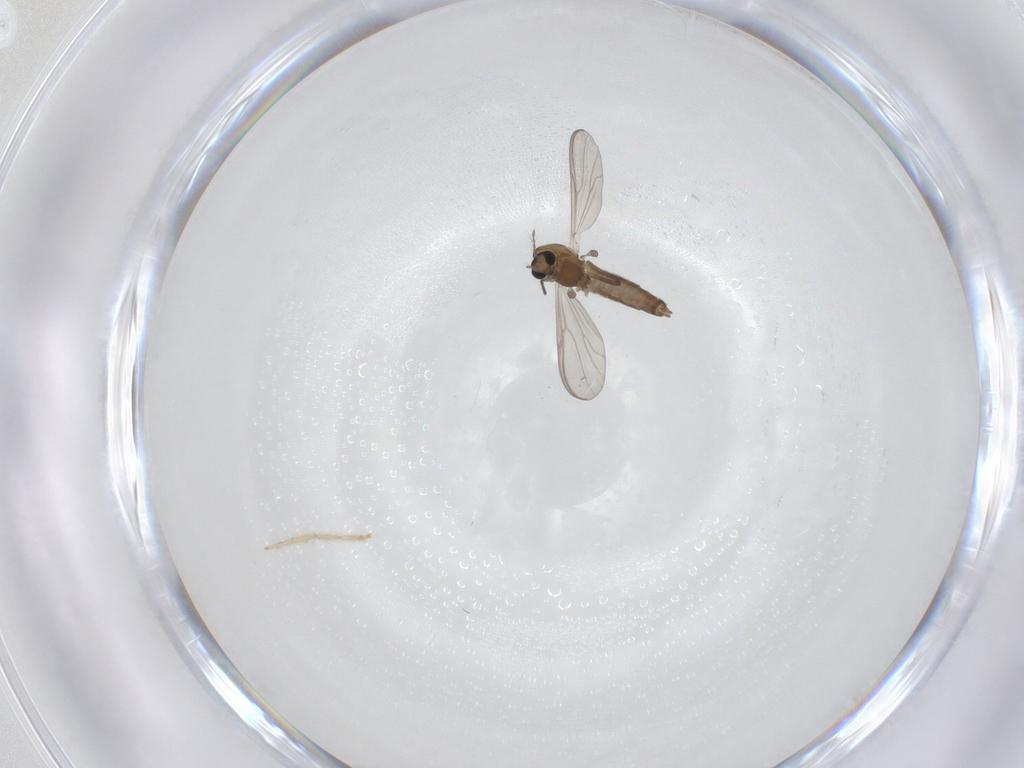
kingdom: Animalia
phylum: Arthropoda
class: Insecta
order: Diptera
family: Chironomidae
